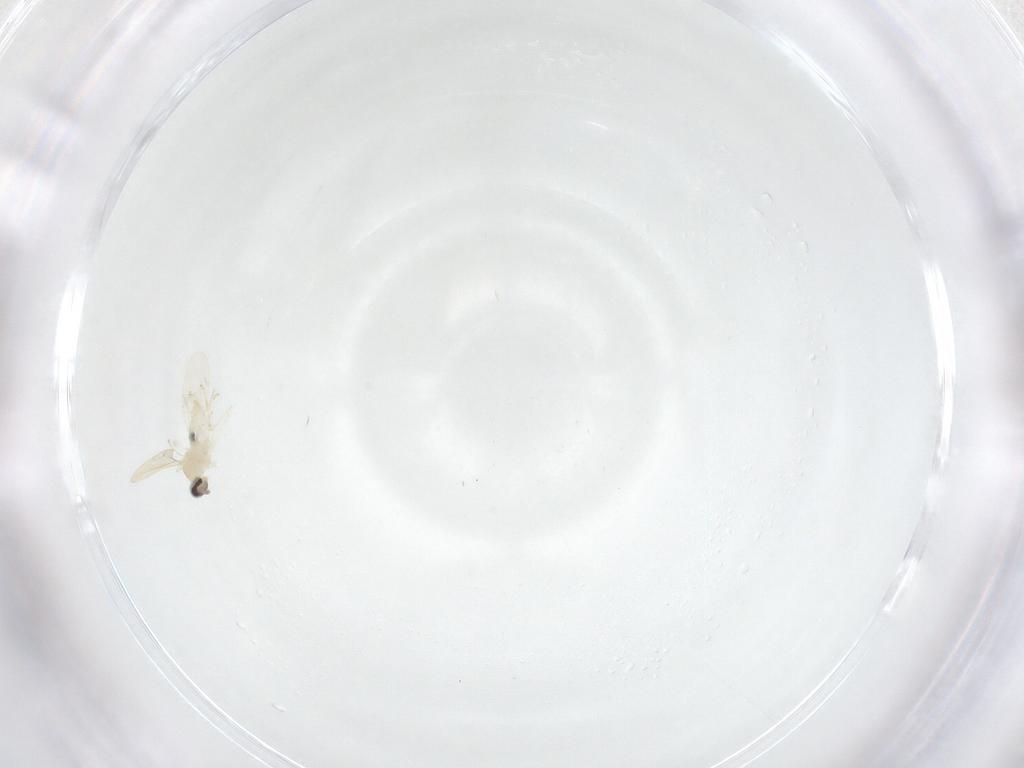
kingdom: Animalia
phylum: Arthropoda
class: Insecta
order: Diptera
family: Cecidomyiidae
